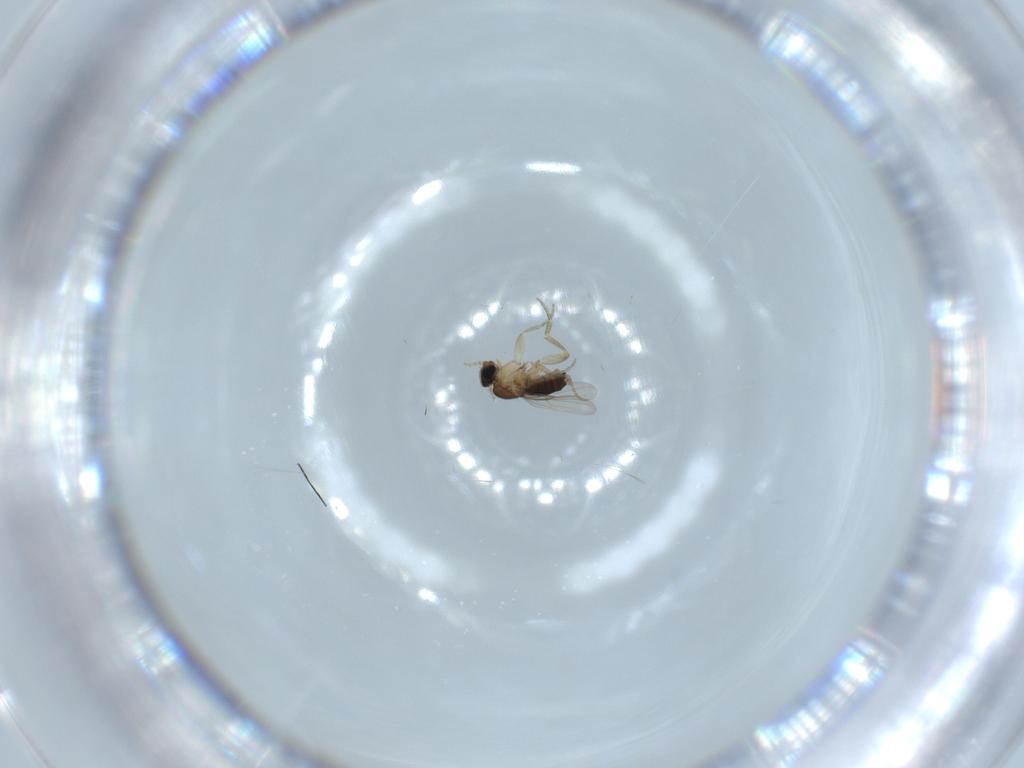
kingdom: Animalia
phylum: Arthropoda
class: Insecta
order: Diptera
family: Phoridae
